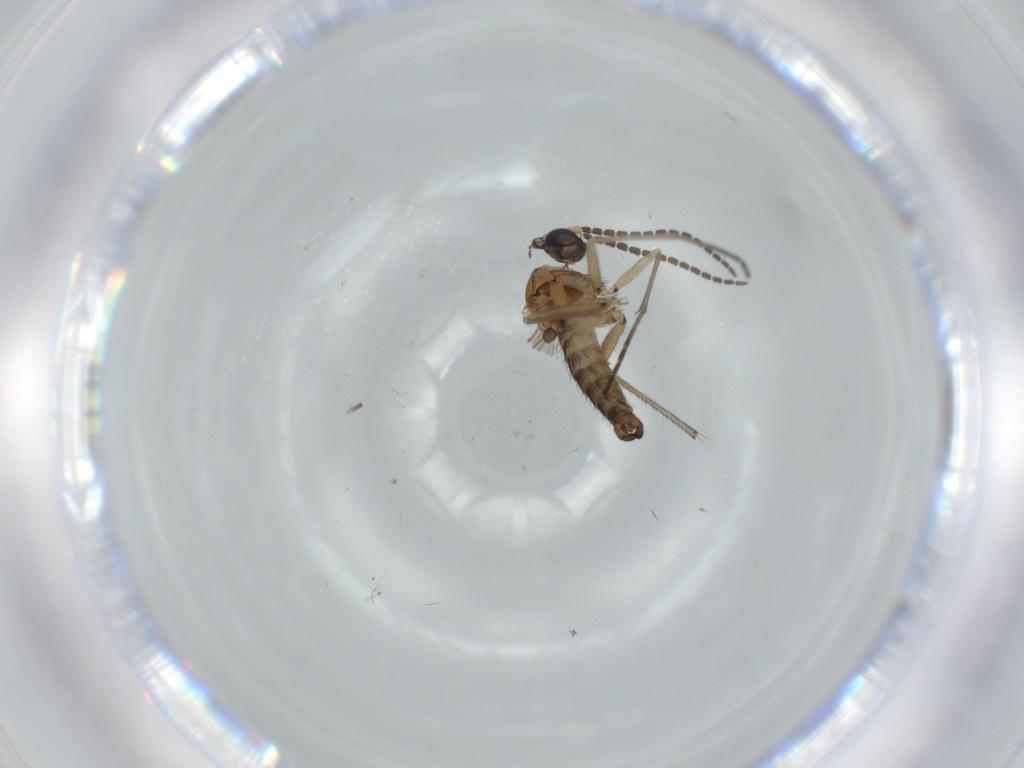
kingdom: Animalia
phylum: Arthropoda
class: Insecta
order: Diptera
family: Sciaridae
